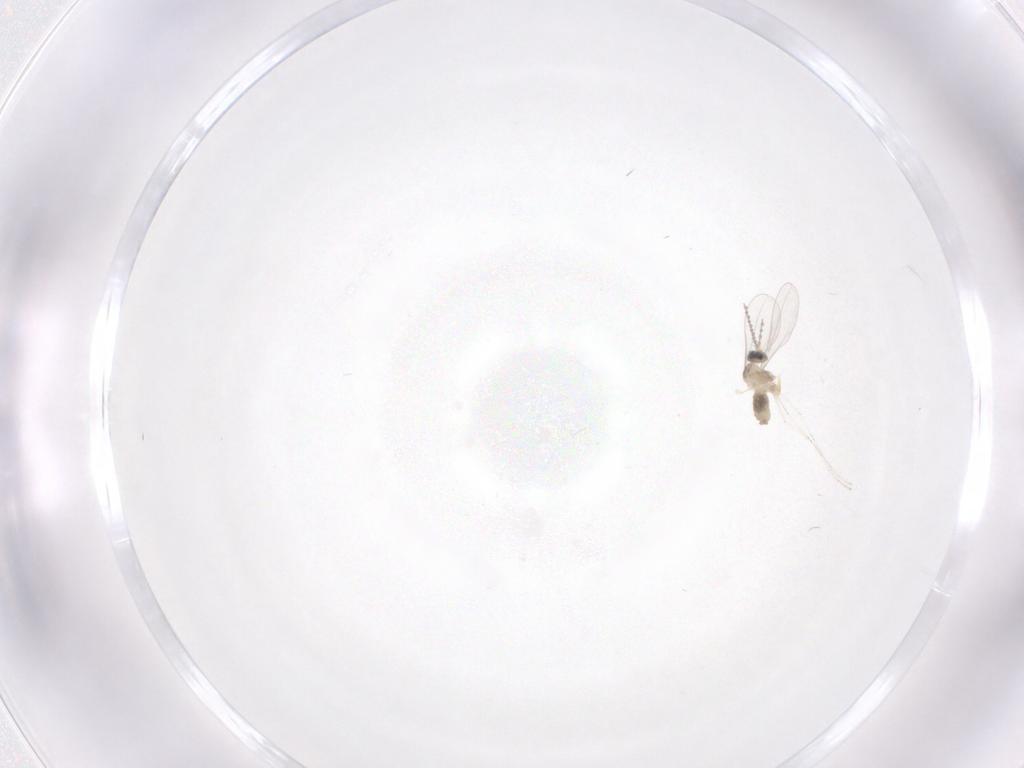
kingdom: Animalia
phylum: Arthropoda
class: Insecta
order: Diptera
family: Cecidomyiidae
